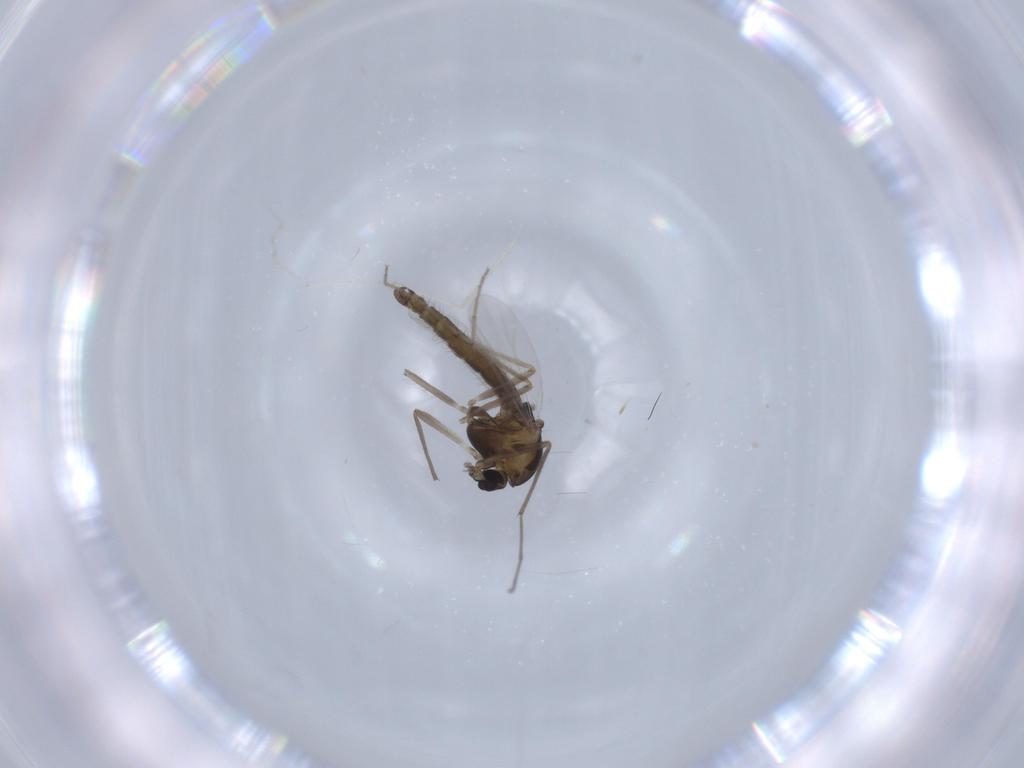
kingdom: Animalia
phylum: Arthropoda
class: Insecta
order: Diptera
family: Chironomidae
